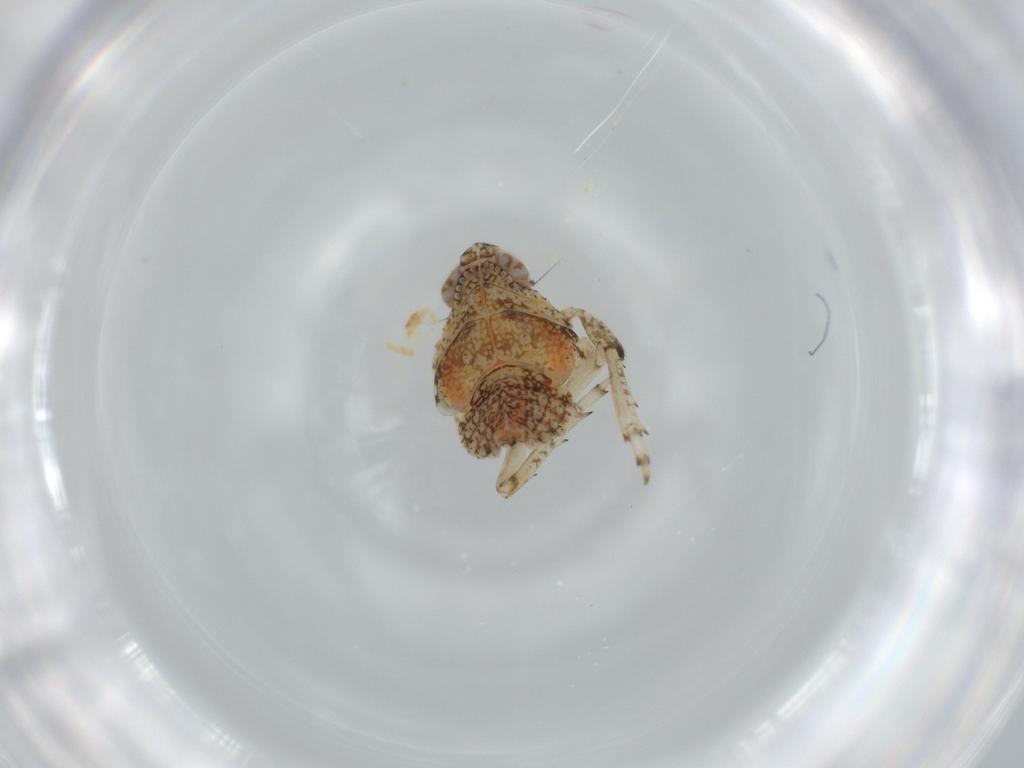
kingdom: Animalia
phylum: Arthropoda
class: Insecta
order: Hemiptera
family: Issidae
